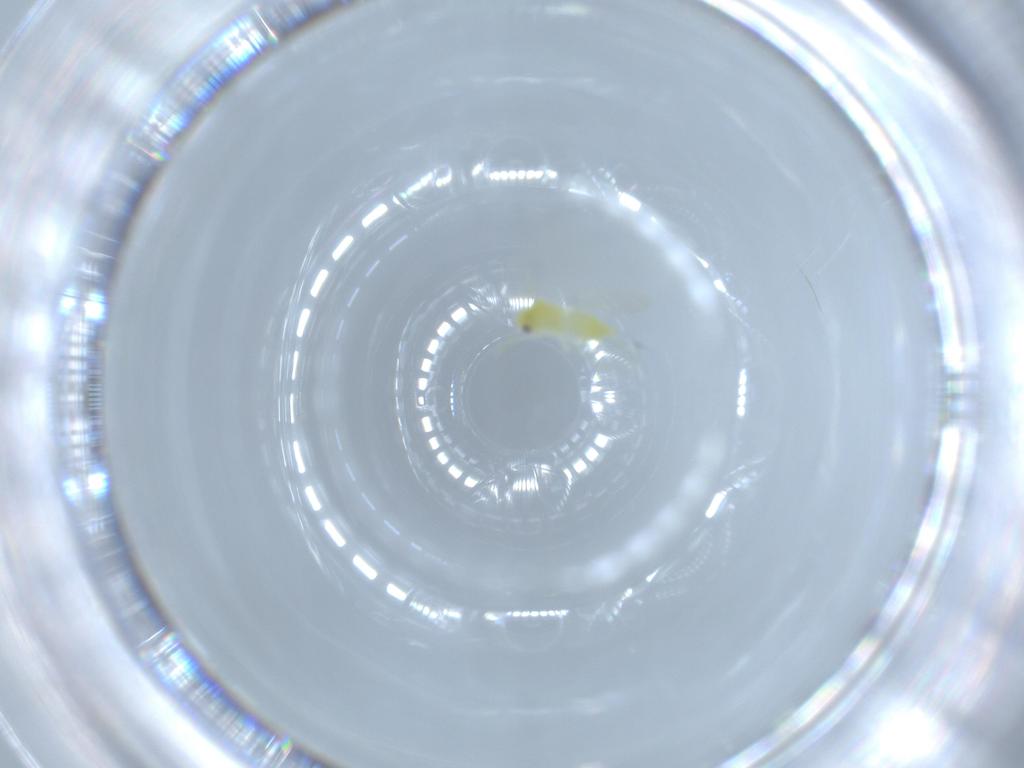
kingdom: Animalia
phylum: Arthropoda
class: Insecta
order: Hemiptera
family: Aleyrodidae
